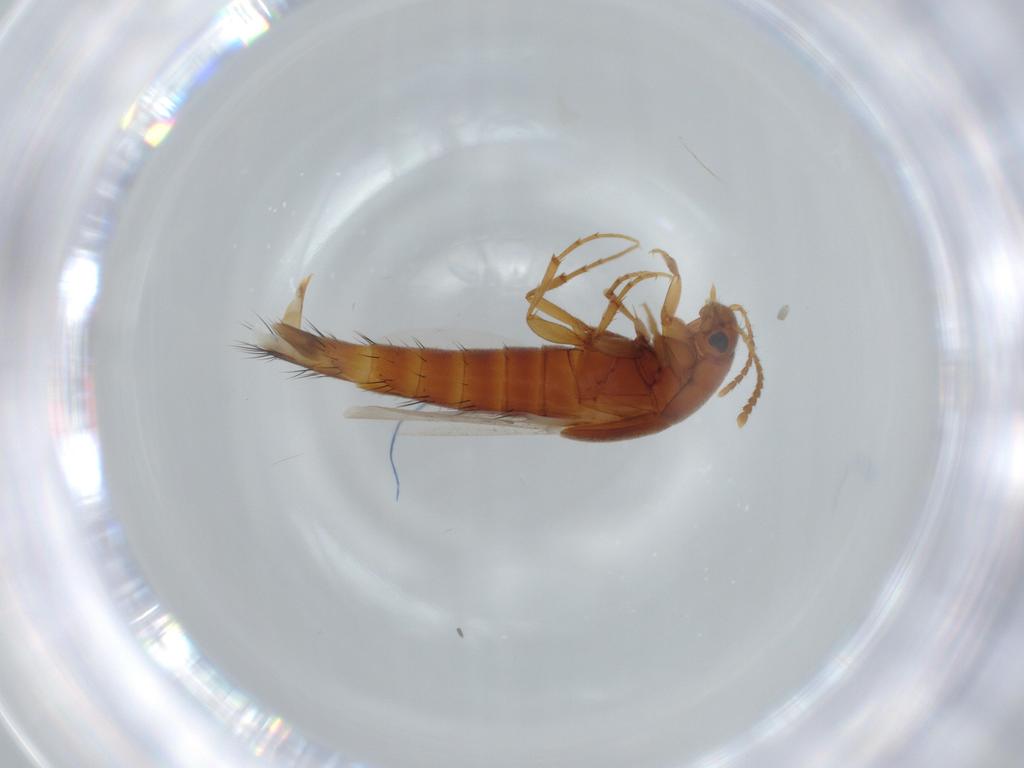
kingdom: Animalia
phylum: Arthropoda
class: Insecta
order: Coleoptera
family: Staphylinidae
